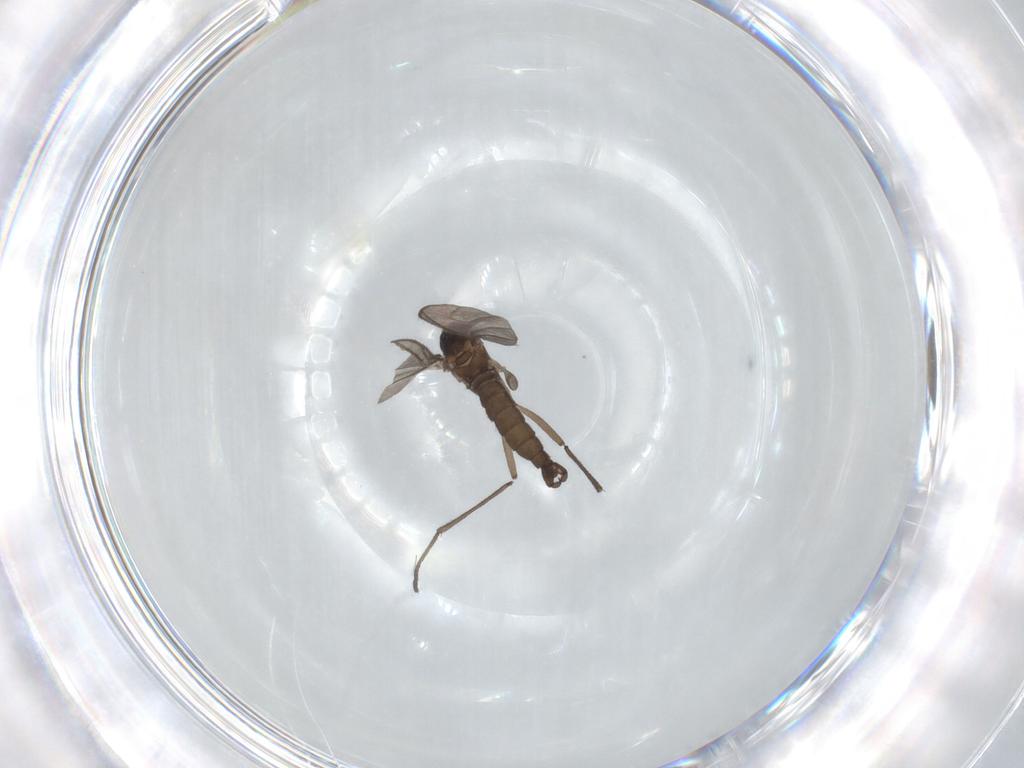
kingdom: Animalia
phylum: Arthropoda
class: Insecta
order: Diptera
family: Sciaridae
